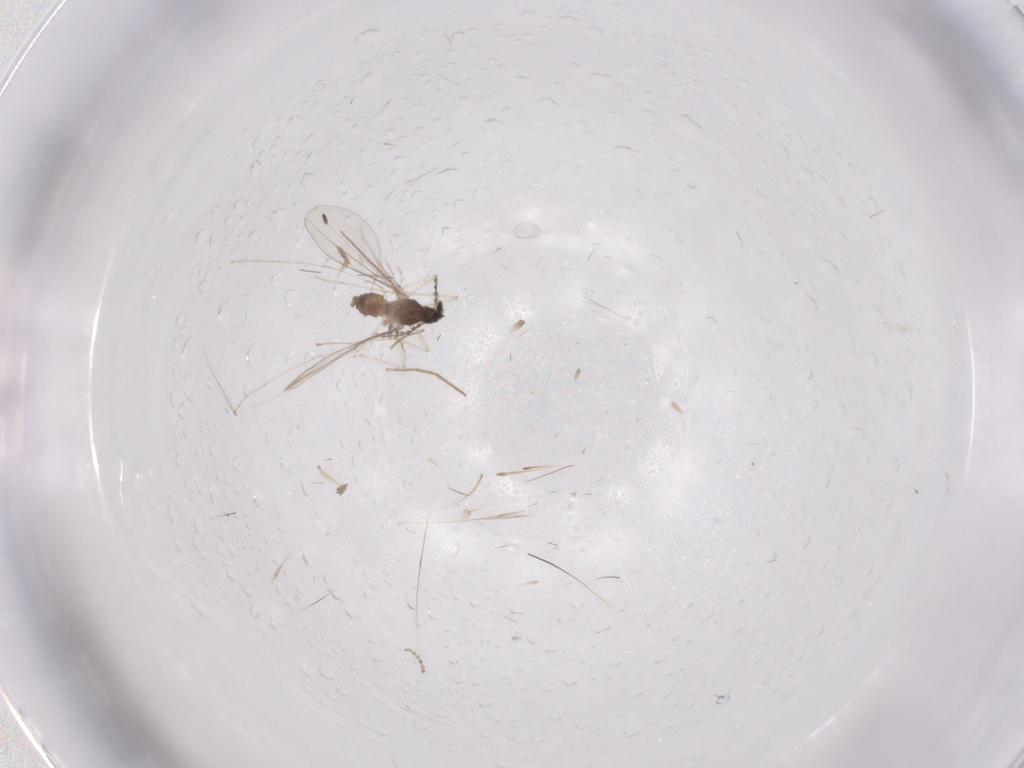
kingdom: Animalia
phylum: Arthropoda
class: Insecta
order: Diptera
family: Cecidomyiidae
